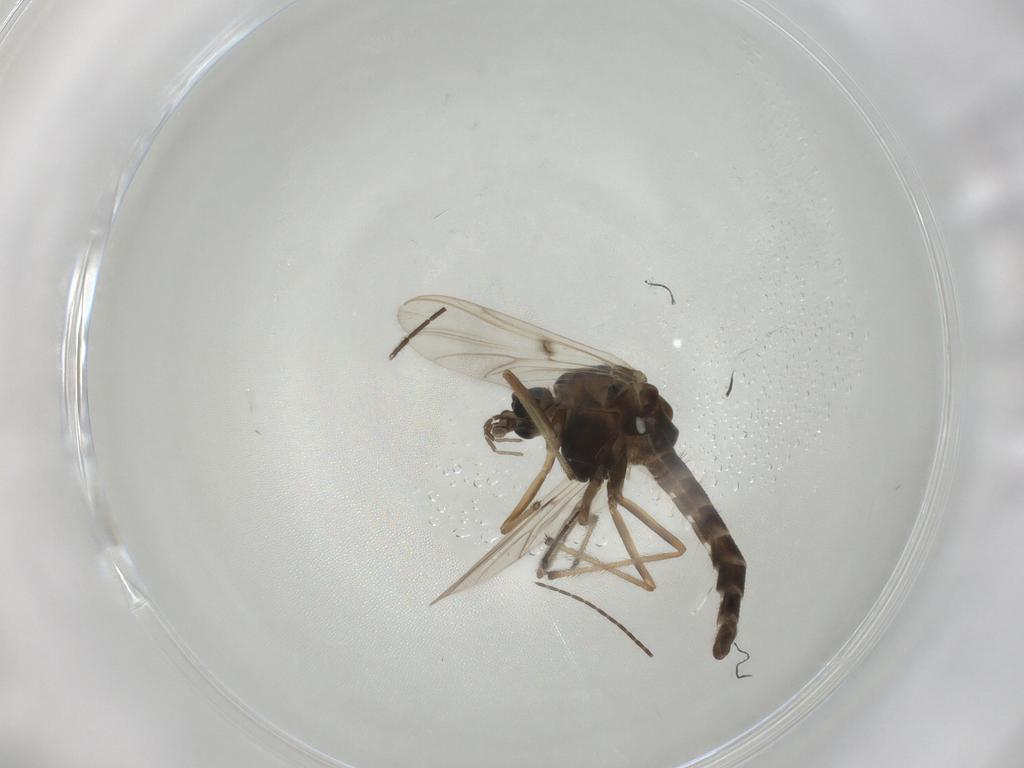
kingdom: Animalia
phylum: Arthropoda
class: Insecta
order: Diptera
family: Chironomidae
